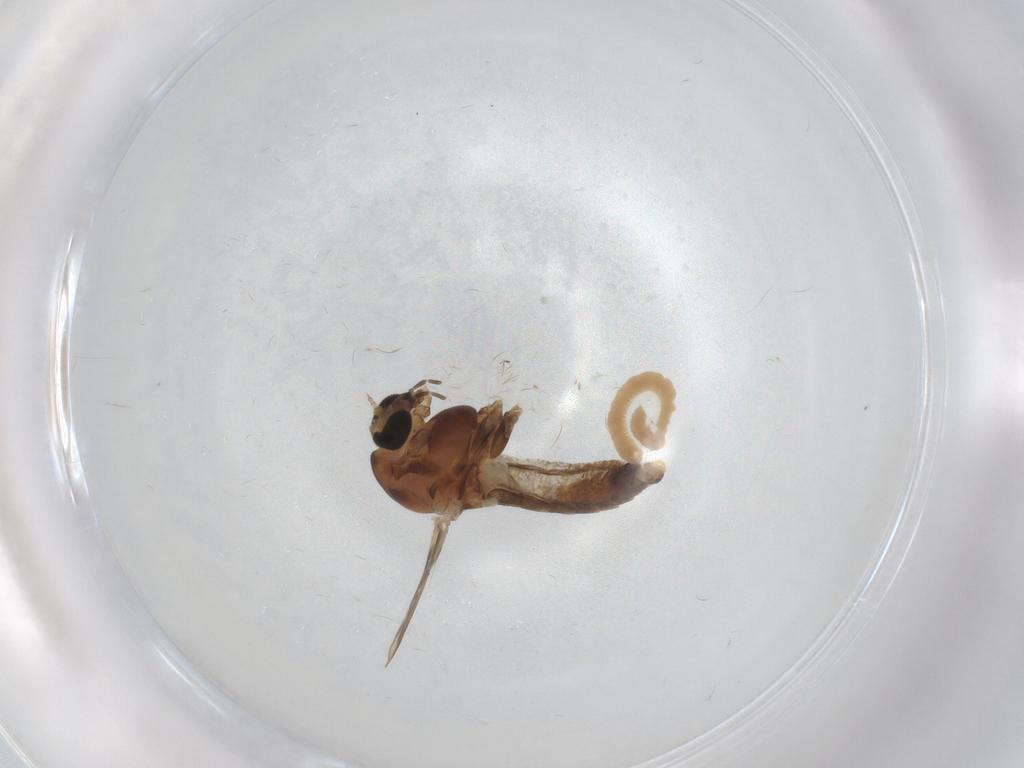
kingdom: Animalia
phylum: Arthropoda
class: Insecta
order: Diptera
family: Chironomidae
